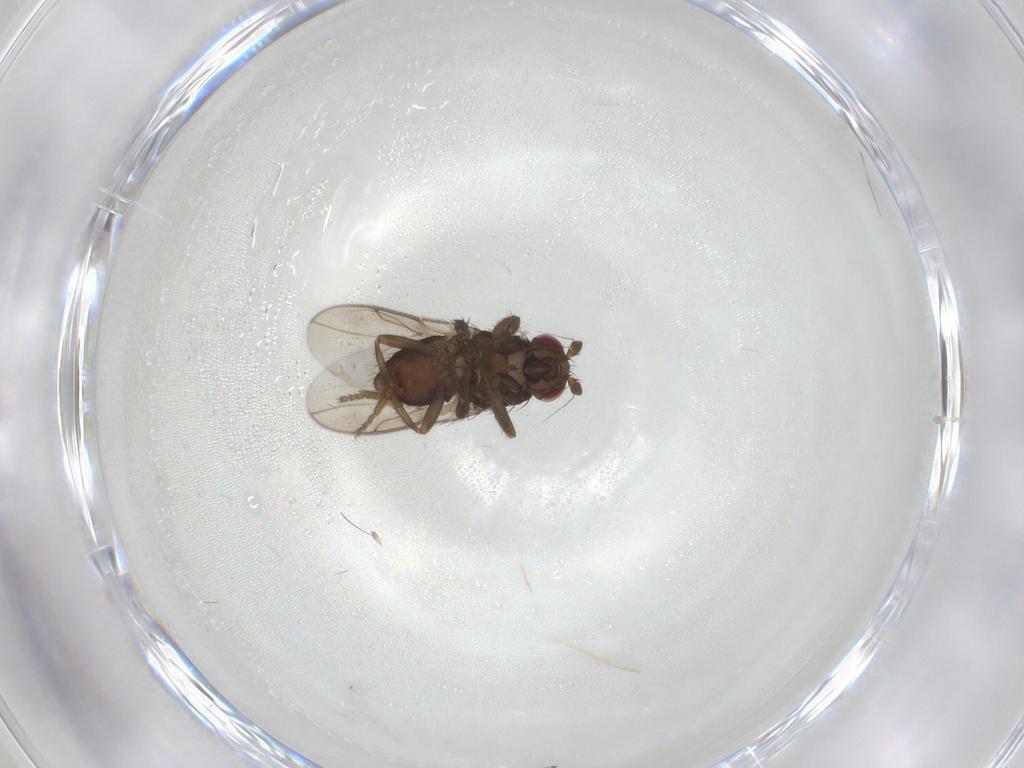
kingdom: Animalia
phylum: Arthropoda
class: Insecta
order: Diptera
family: Sphaeroceridae
